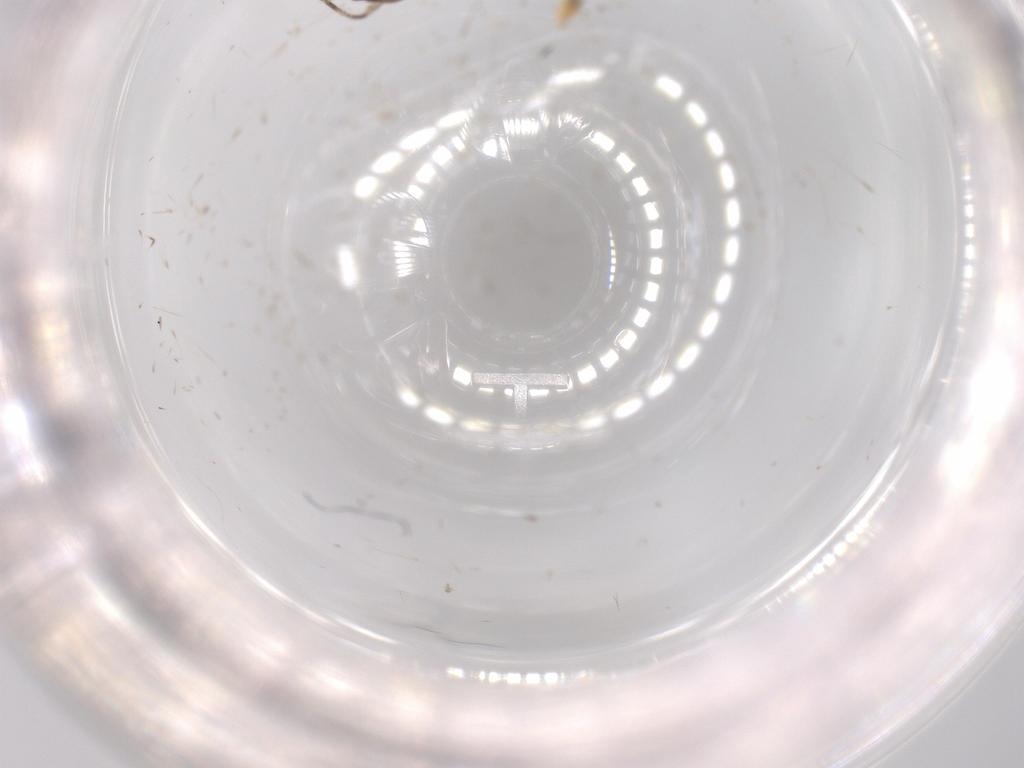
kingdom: Animalia
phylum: Arthropoda
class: Insecta
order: Lepidoptera
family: Tineidae
